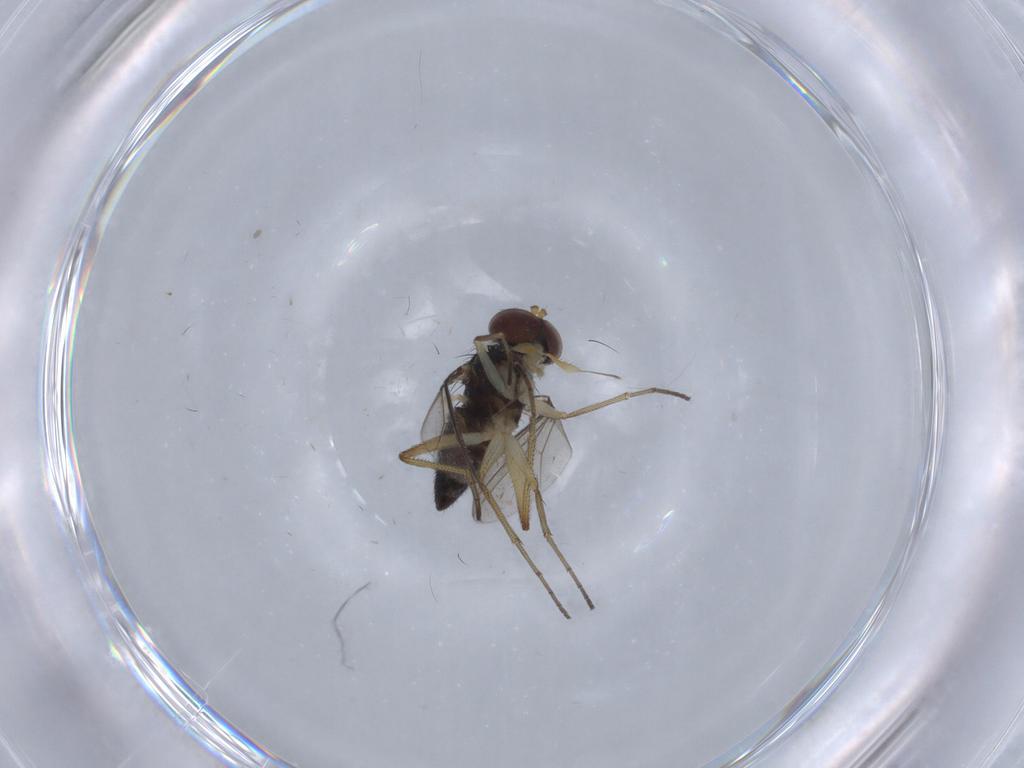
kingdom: Animalia
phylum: Arthropoda
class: Insecta
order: Diptera
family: Dolichopodidae
